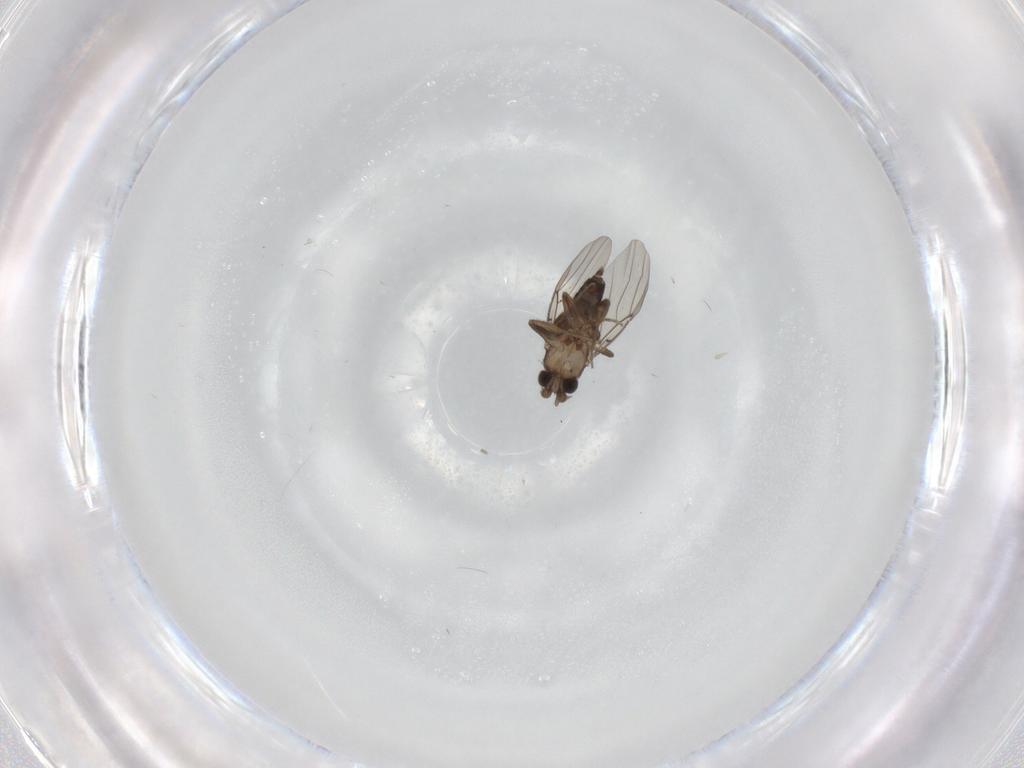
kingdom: Animalia
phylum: Arthropoda
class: Insecta
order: Diptera
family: Phoridae
